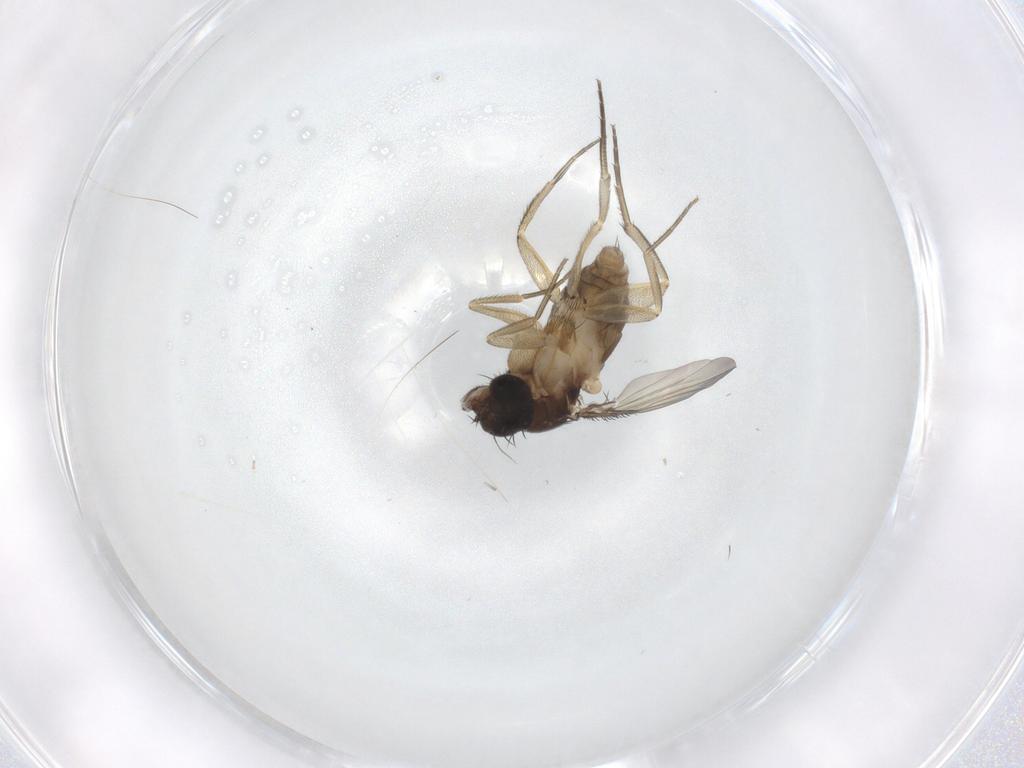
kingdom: Animalia
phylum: Arthropoda
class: Insecta
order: Diptera
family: Phoridae
